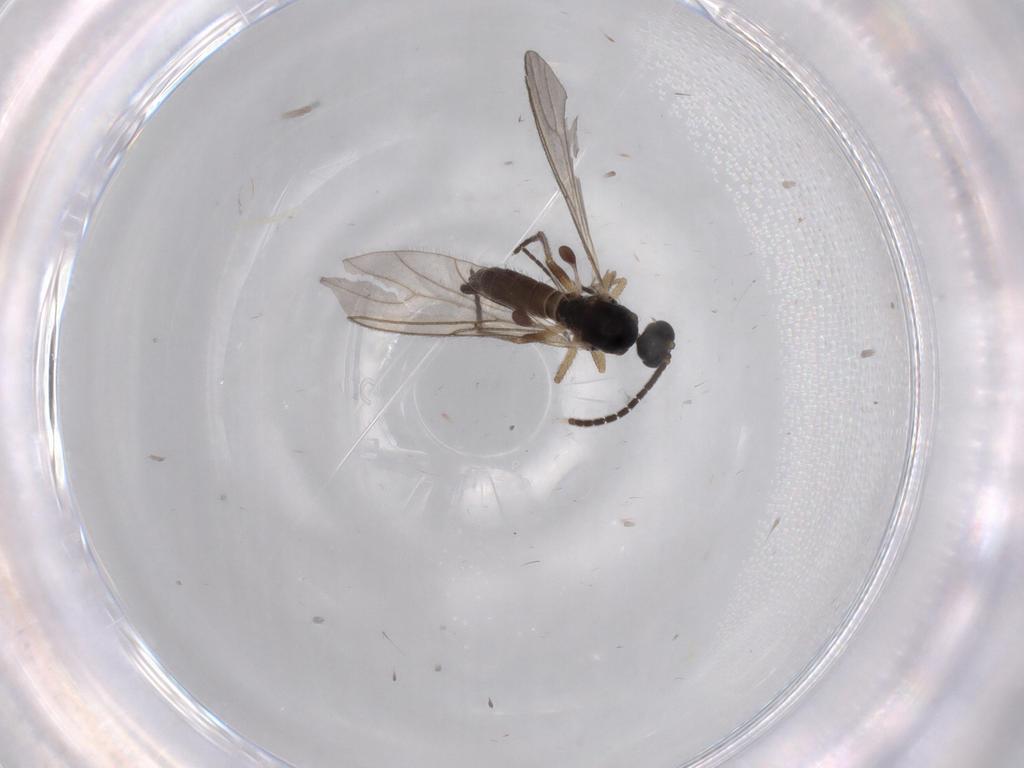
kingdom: Animalia
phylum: Arthropoda
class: Insecta
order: Diptera
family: Sciaridae
